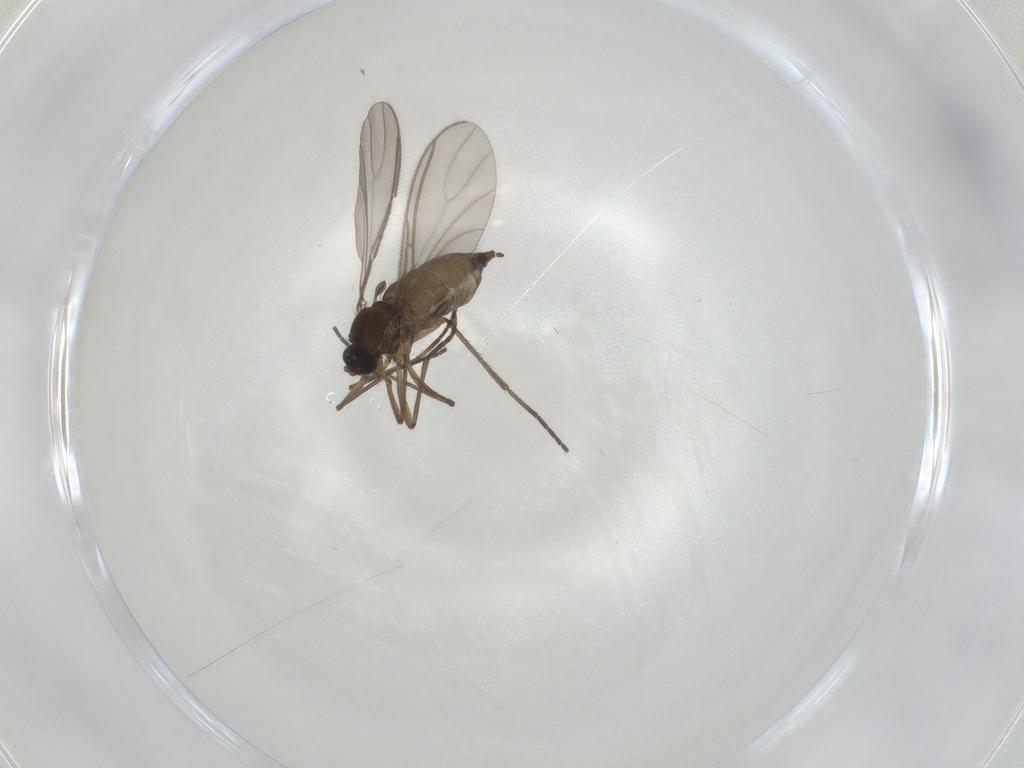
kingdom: Animalia
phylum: Arthropoda
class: Insecta
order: Diptera
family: Sciaridae
